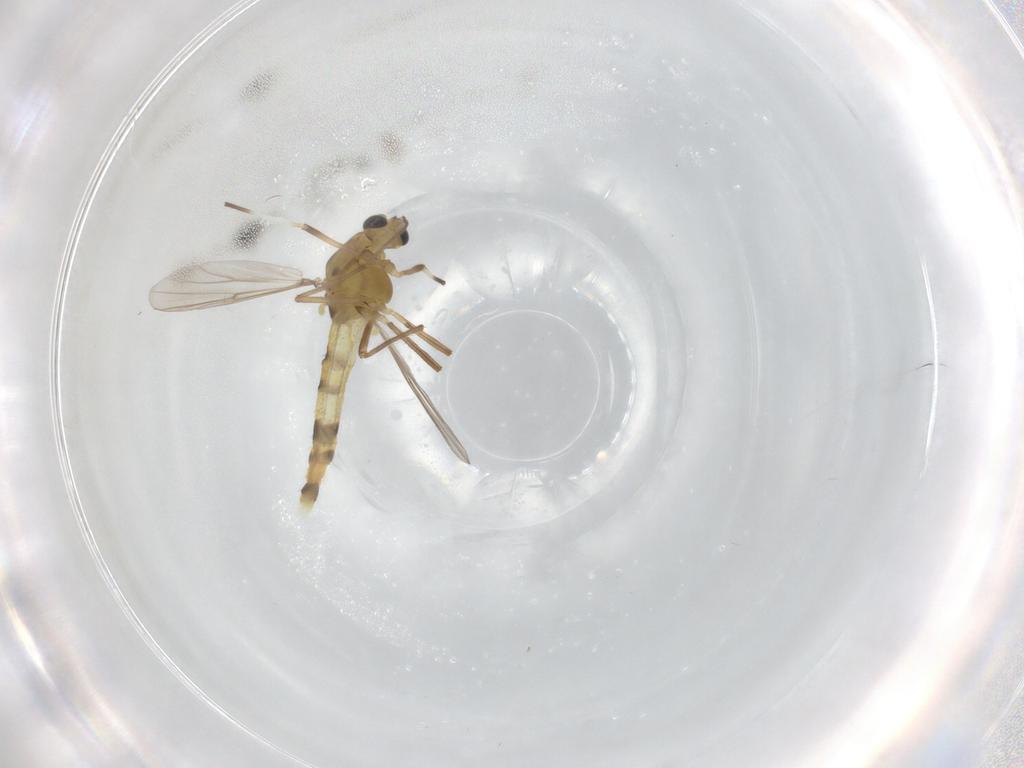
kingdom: Animalia
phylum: Arthropoda
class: Insecta
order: Diptera
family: Chironomidae
